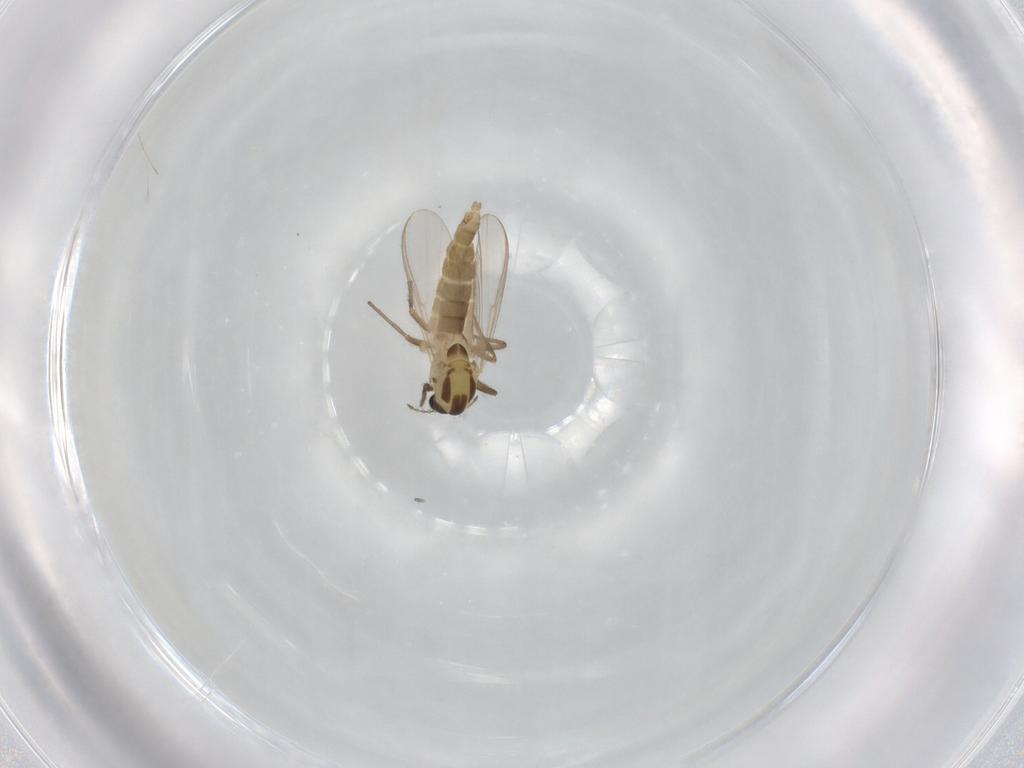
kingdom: Animalia
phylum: Arthropoda
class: Insecta
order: Diptera
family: Chironomidae
